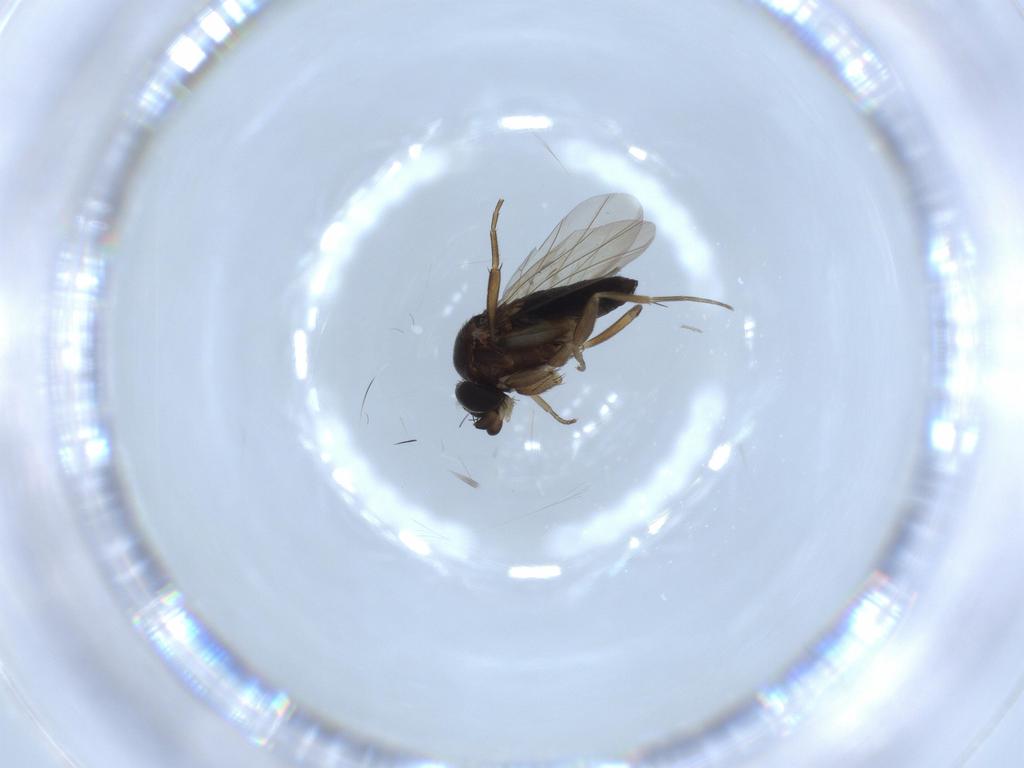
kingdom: Animalia
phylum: Arthropoda
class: Insecta
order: Diptera
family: Phoridae
